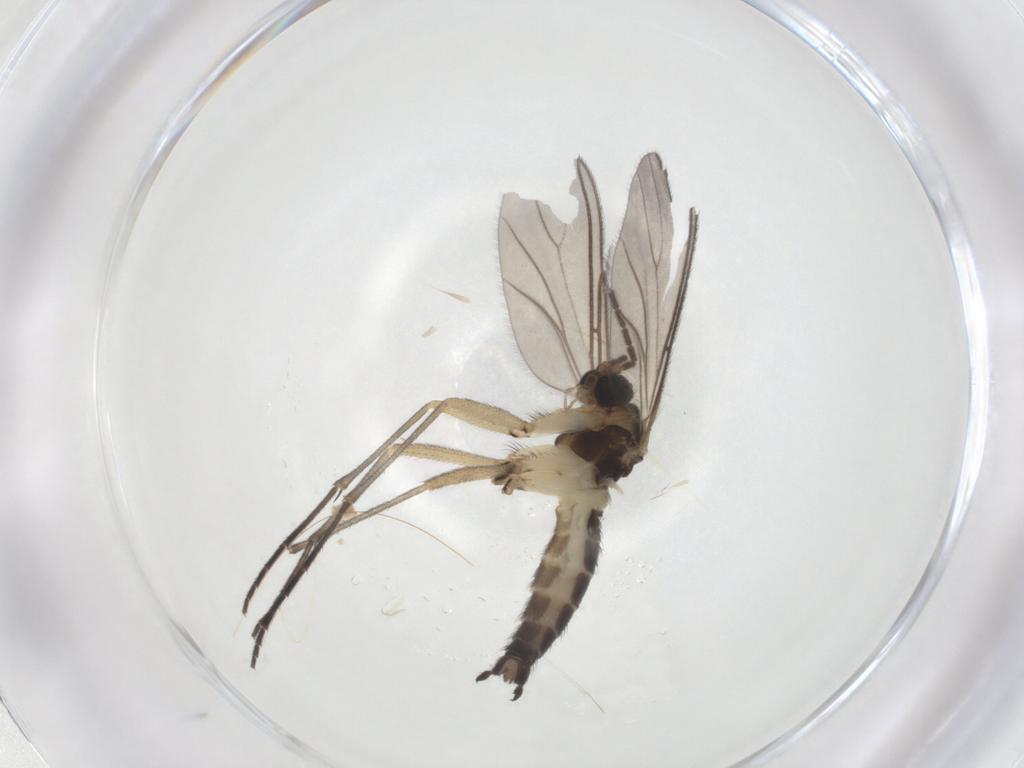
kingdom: Animalia
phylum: Arthropoda
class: Insecta
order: Diptera
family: Sciaridae
